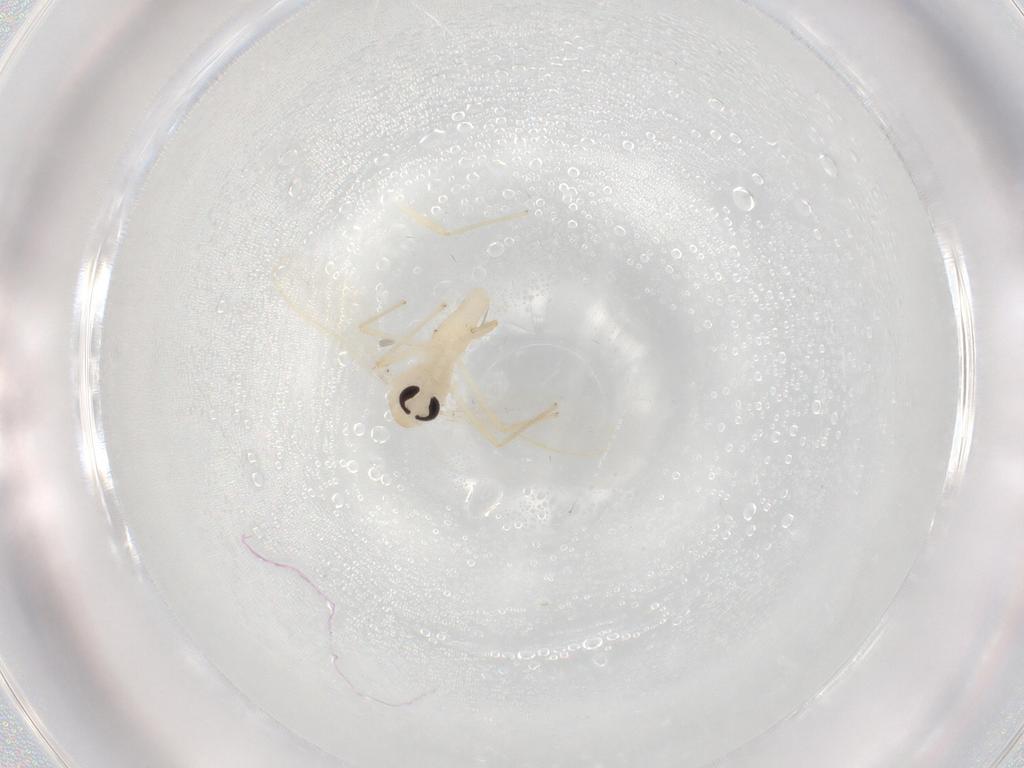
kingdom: Animalia
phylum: Arthropoda
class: Insecta
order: Diptera
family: Chironomidae
